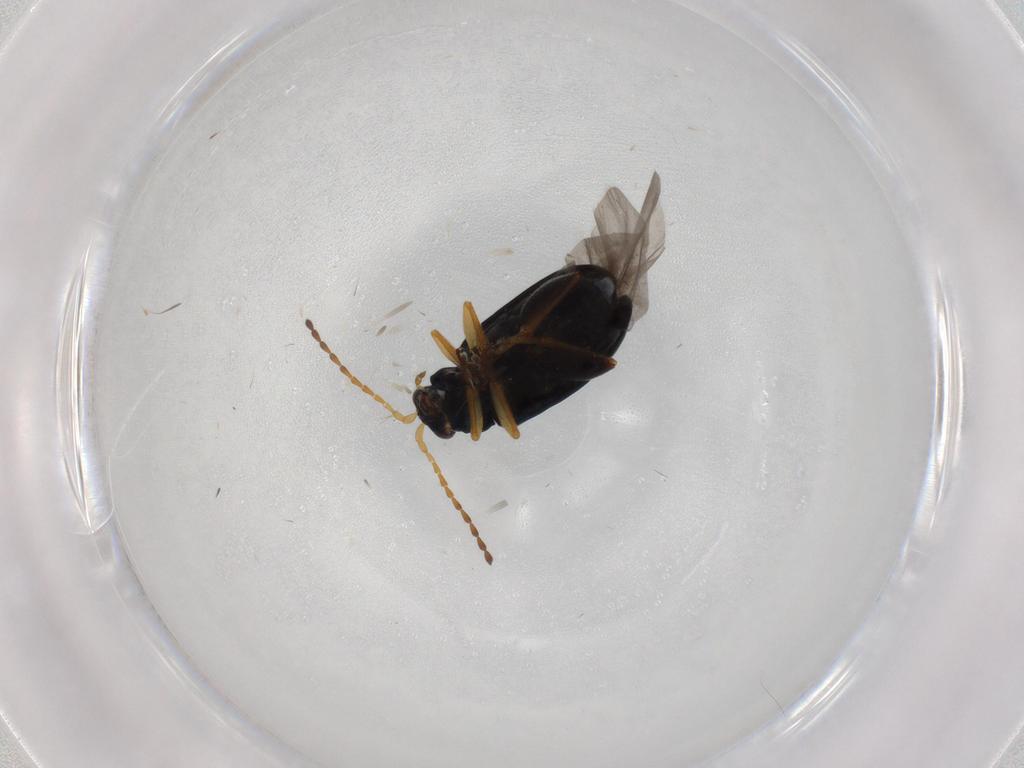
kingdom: Animalia
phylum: Arthropoda
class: Insecta
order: Coleoptera
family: Chrysomelidae
